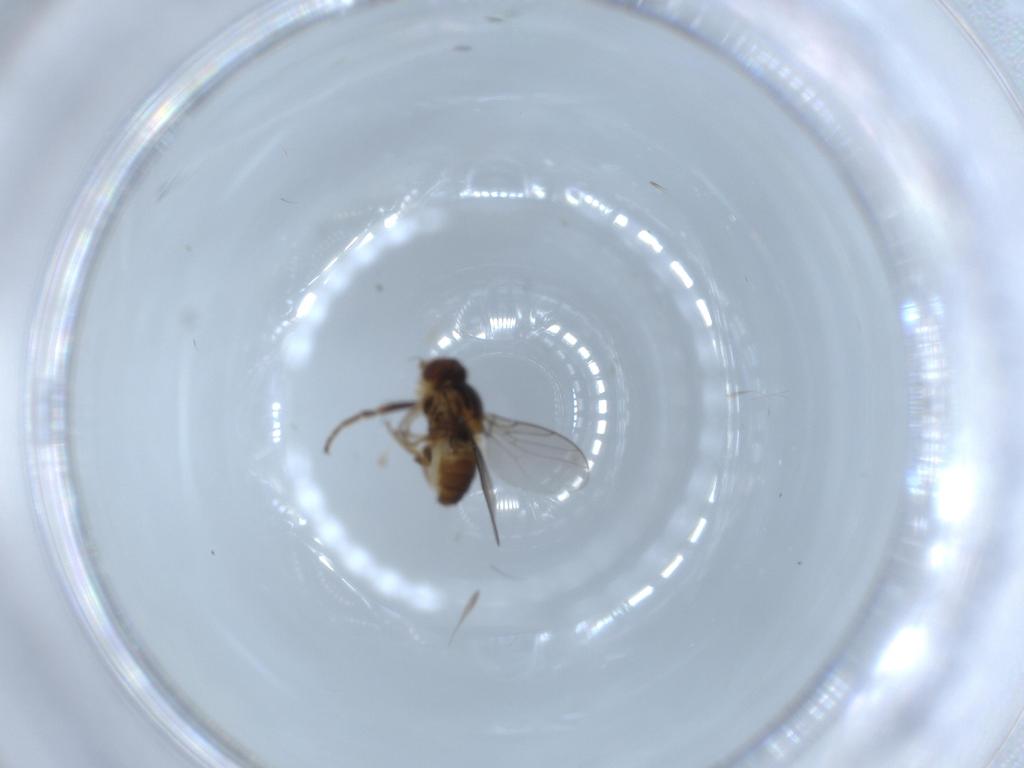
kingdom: Animalia
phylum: Arthropoda
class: Insecta
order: Diptera
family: Chloropidae
